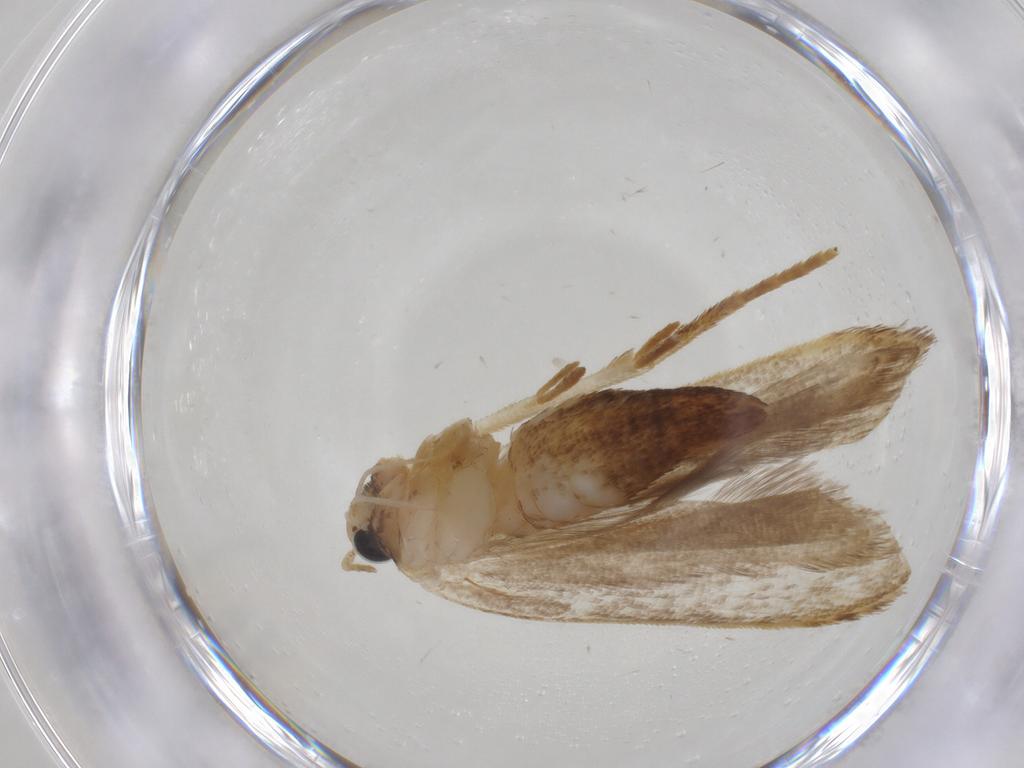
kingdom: Animalia
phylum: Arthropoda
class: Insecta
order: Lepidoptera
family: Gelechiidae
